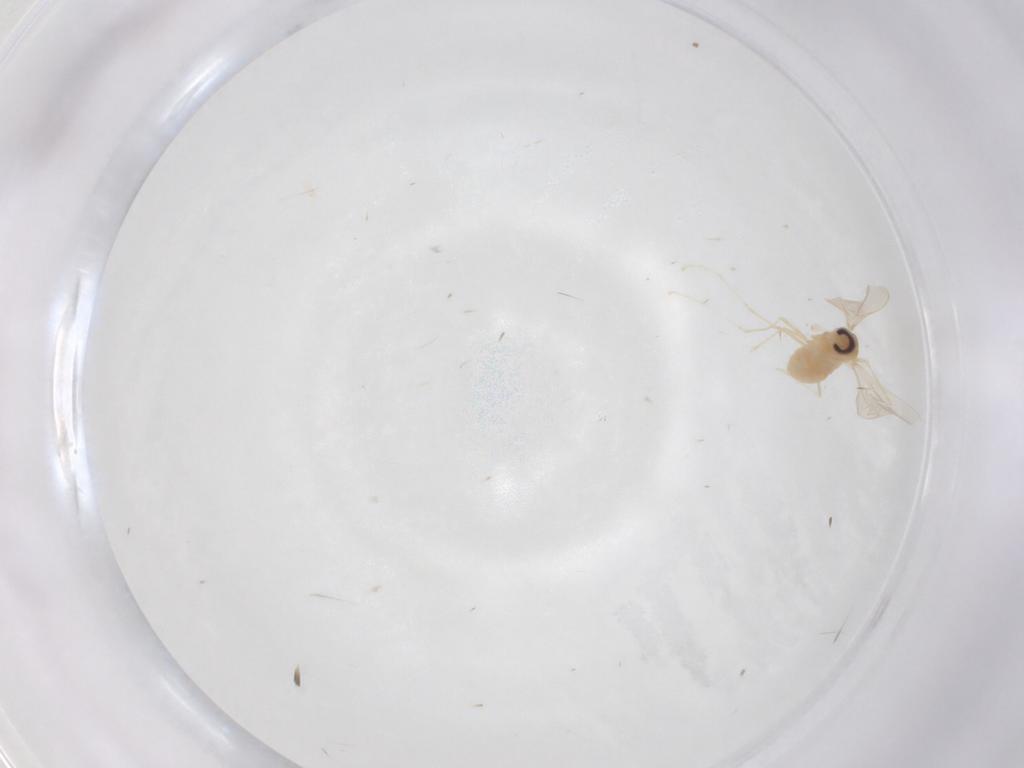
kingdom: Animalia
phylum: Arthropoda
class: Insecta
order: Diptera
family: Cecidomyiidae
